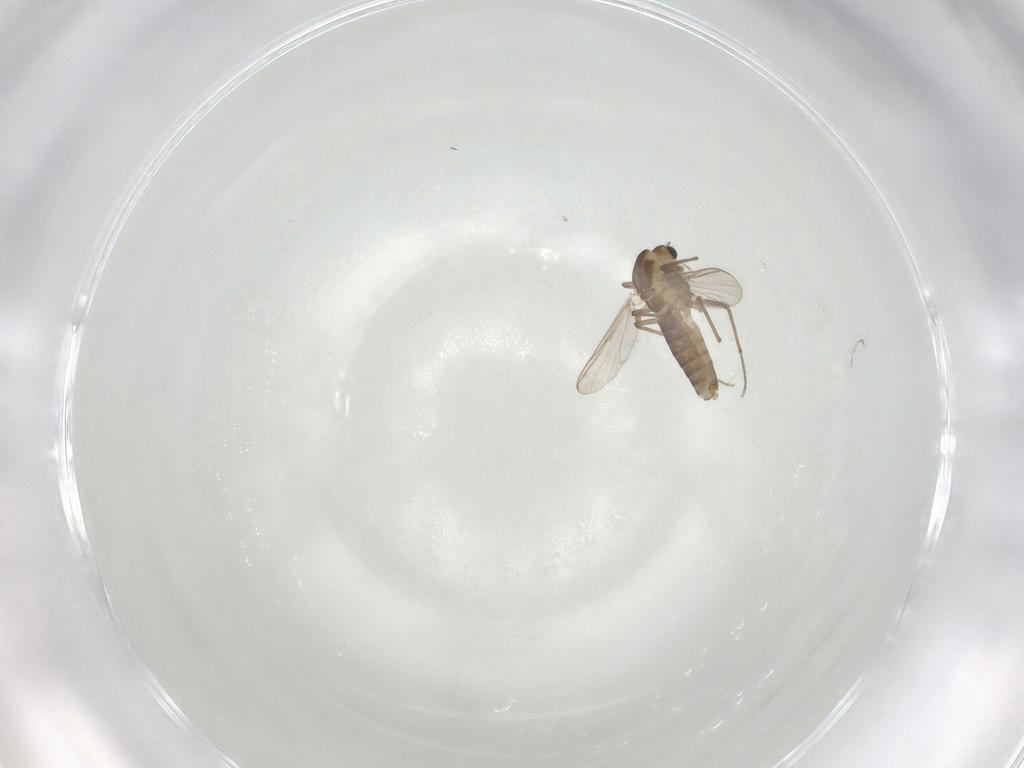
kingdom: Animalia
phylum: Arthropoda
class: Insecta
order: Diptera
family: Chironomidae
